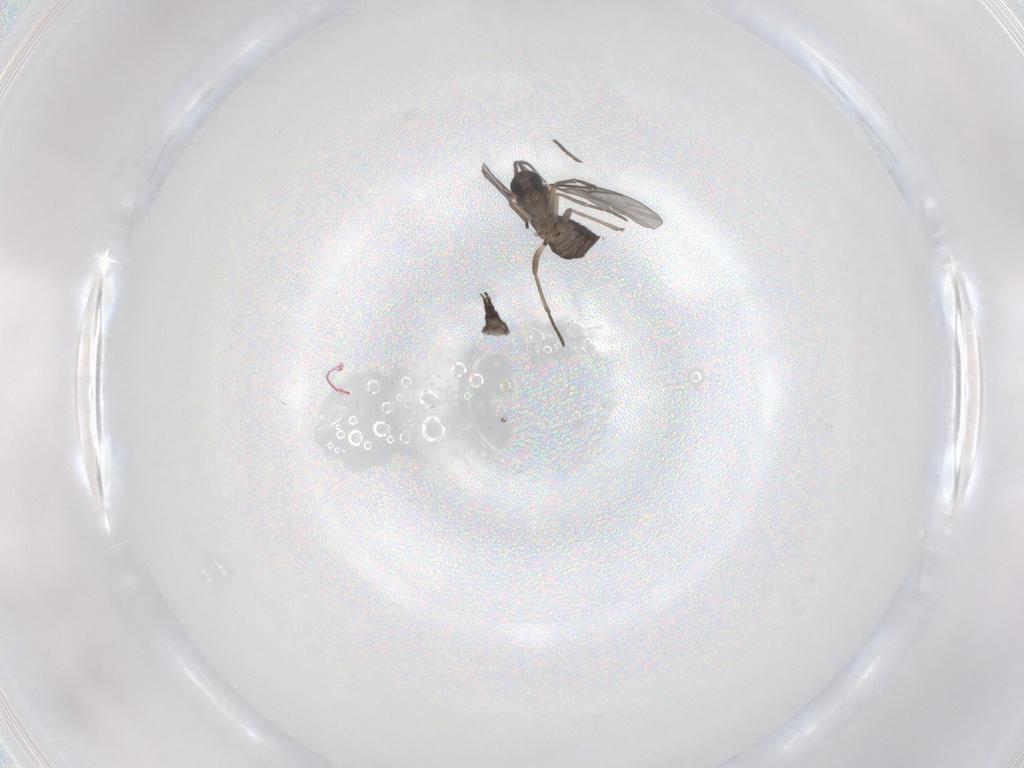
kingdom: Animalia
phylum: Arthropoda
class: Insecta
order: Diptera
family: Sciaridae
